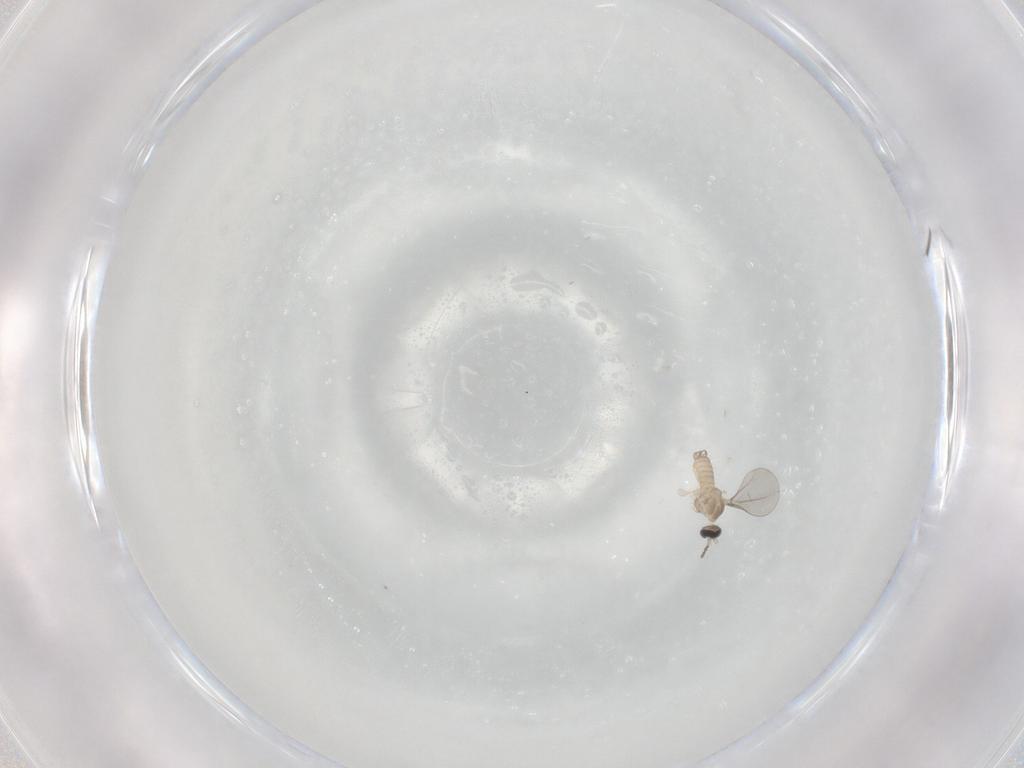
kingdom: Animalia
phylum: Arthropoda
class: Insecta
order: Diptera
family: Mycetophilidae
